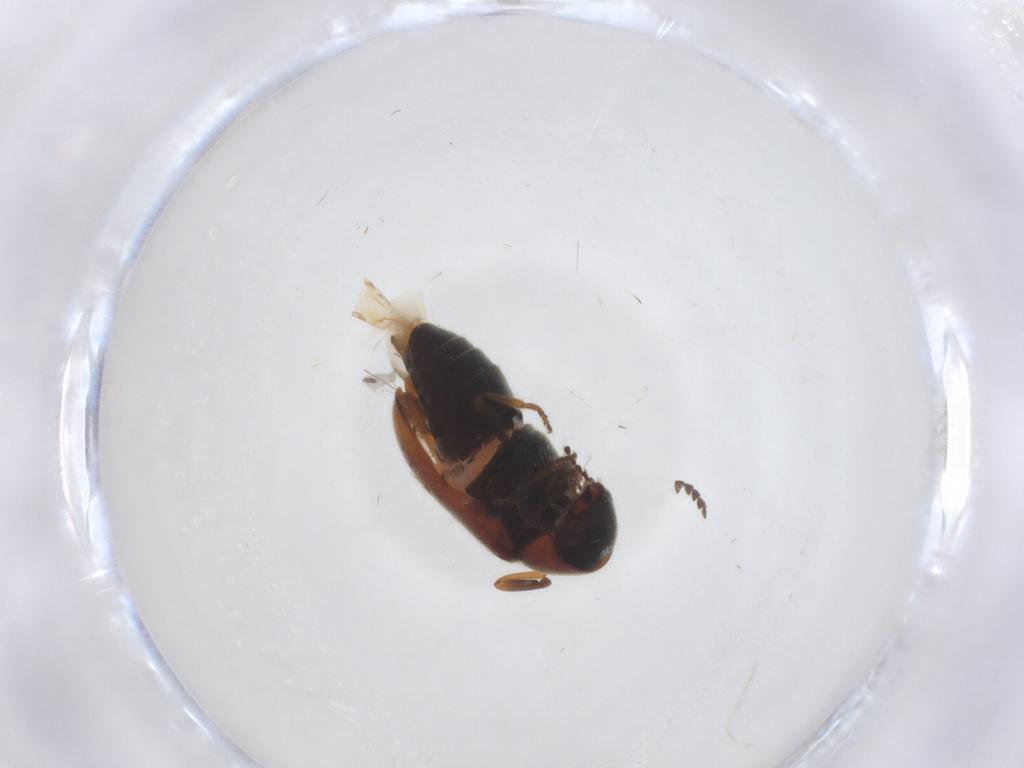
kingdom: Animalia
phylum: Arthropoda
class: Insecta
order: Coleoptera
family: Ptinidae
